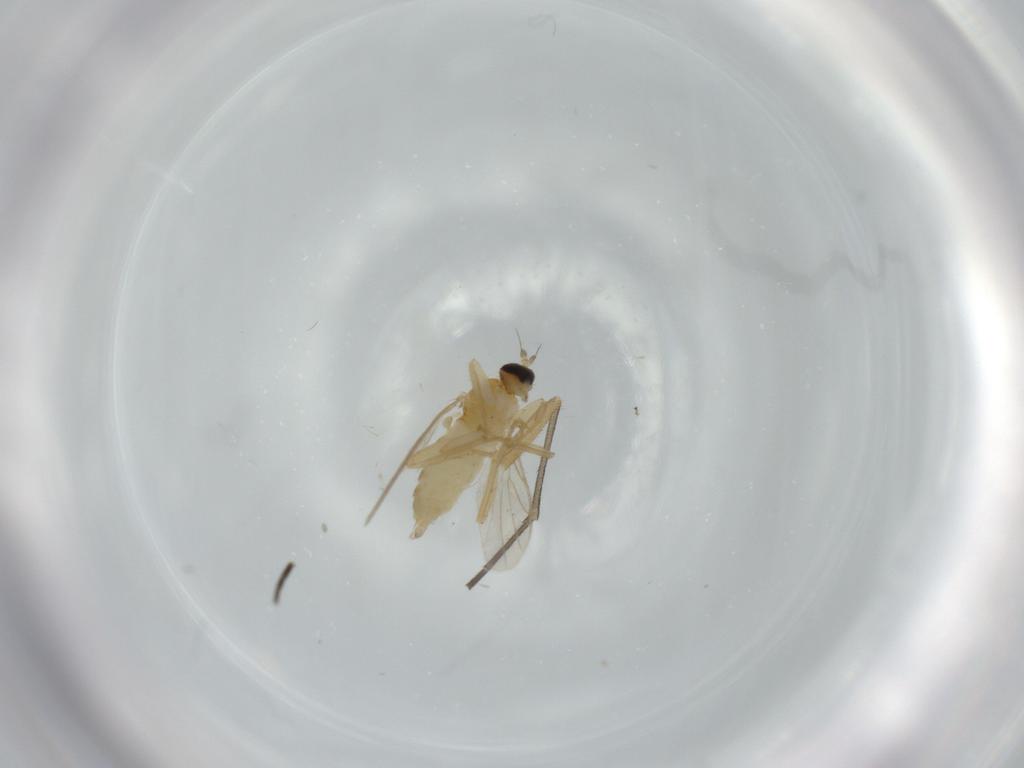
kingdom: Animalia
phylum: Arthropoda
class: Insecta
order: Diptera
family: Hybotidae
